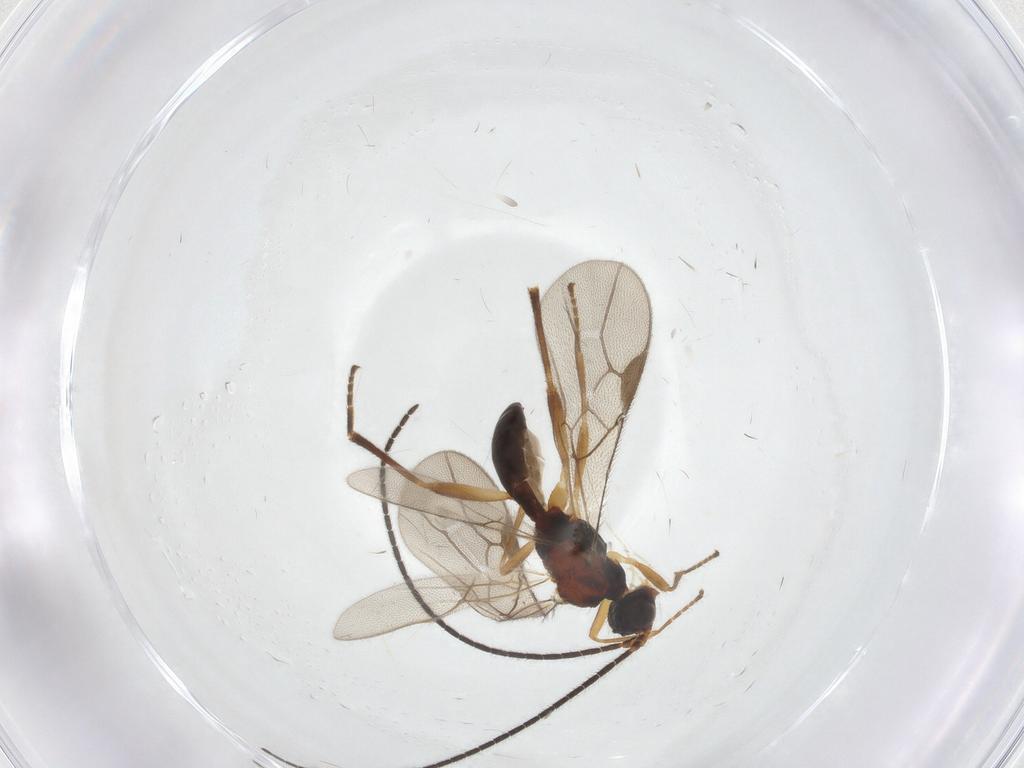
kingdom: Animalia
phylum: Arthropoda
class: Insecta
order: Hymenoptera
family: Braconidae
